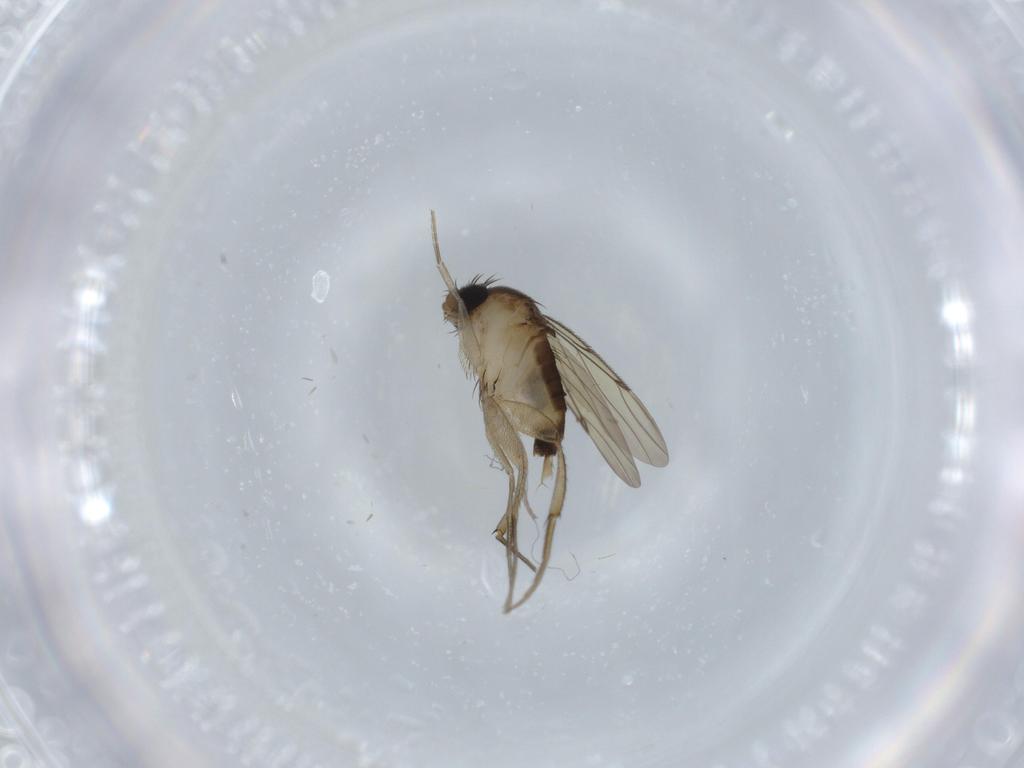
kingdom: Animalia
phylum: Arthropoda
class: Insecta
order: Diptera
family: Phoridae
